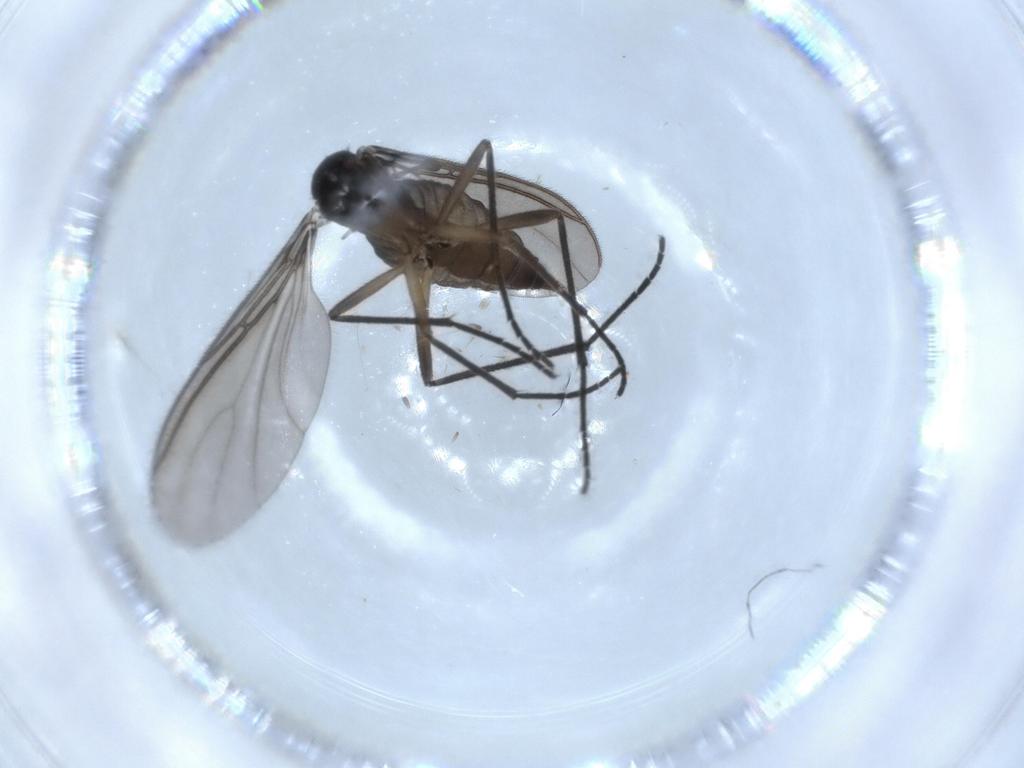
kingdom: Animalia
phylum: Arthropoda
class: Insecta
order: Diptera
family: Sciaridae
